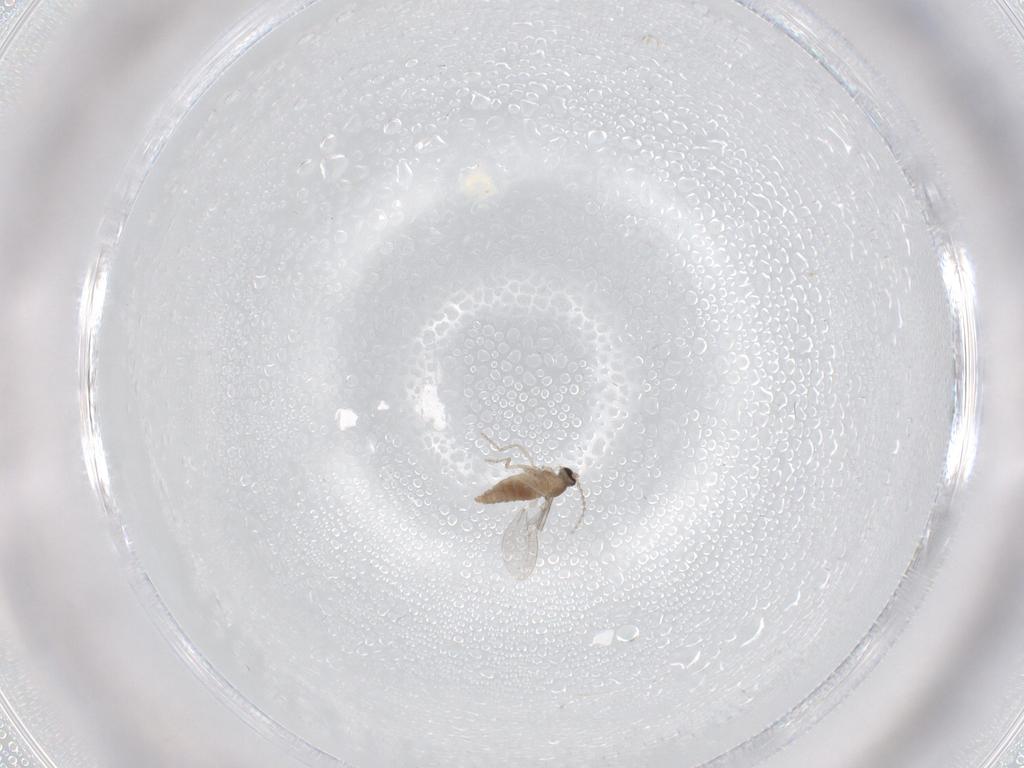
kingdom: Animalia
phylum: Arthropoda
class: Insecta
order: Diptera
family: Cecidomyiidae
